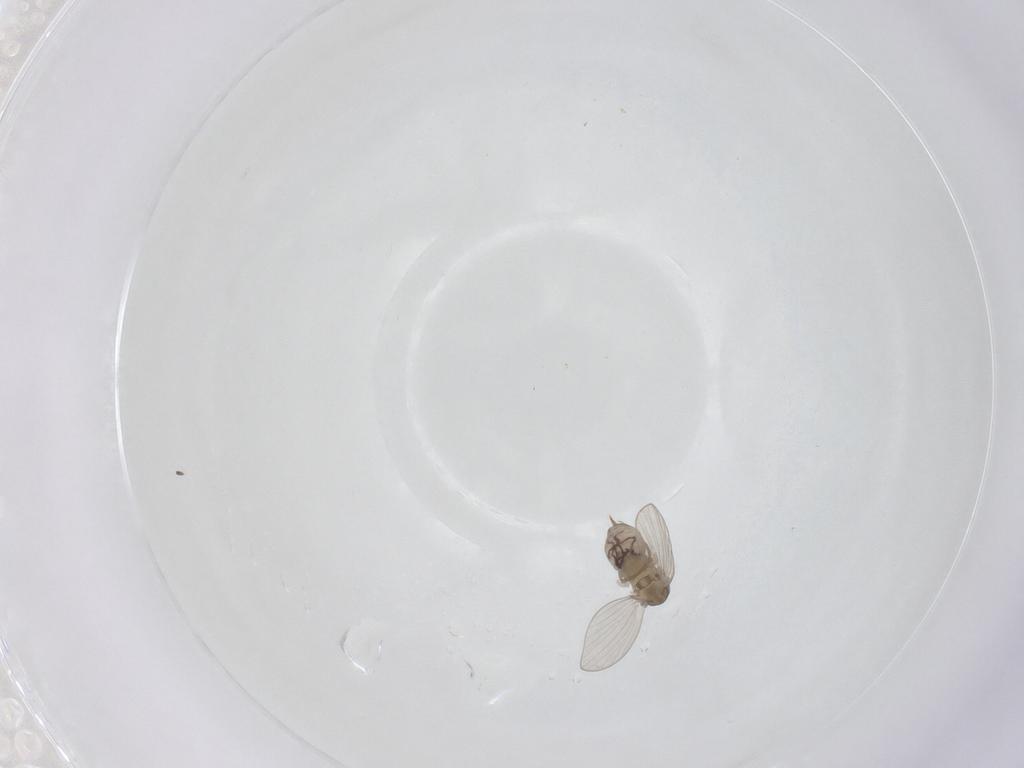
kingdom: Animalia
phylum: Arthropoda
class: Insecta
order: Diptera
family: Psychodidae
